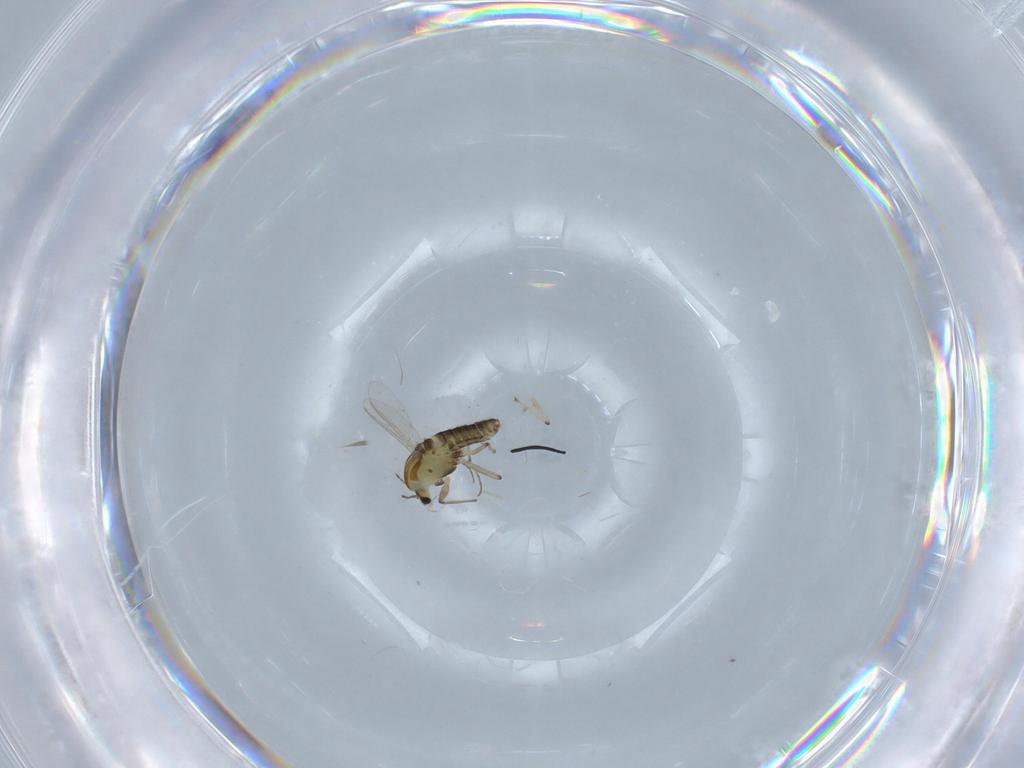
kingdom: Animalia
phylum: Arthropoda
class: Insecta
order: Diptera
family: Chironomidae
